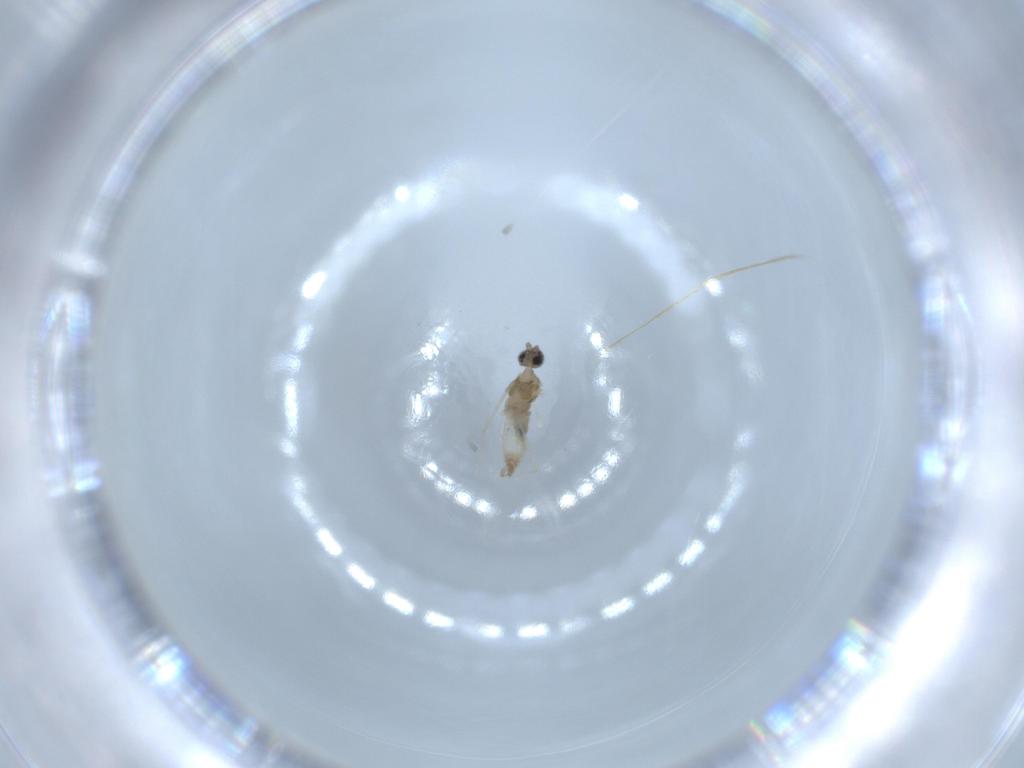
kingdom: Animalia
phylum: Arthropoda
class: Insecta
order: Diptera
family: Cecidomyiidae
